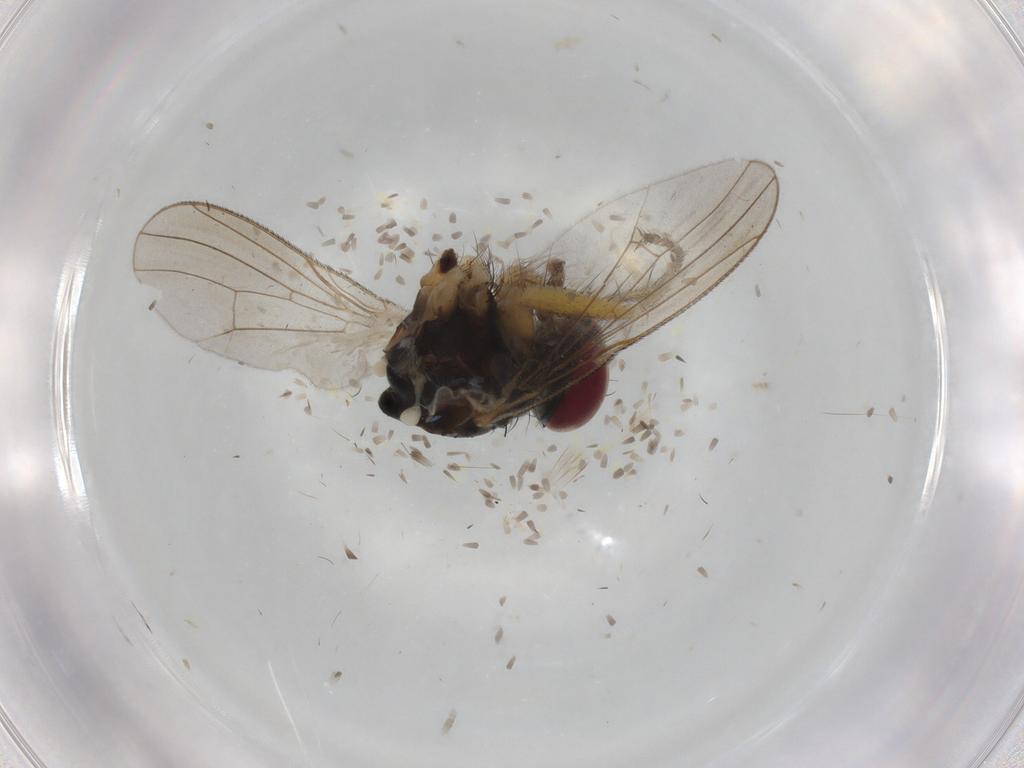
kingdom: Animalia
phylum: Arthropoda
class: Insecta
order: Diptera
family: Muscidae
